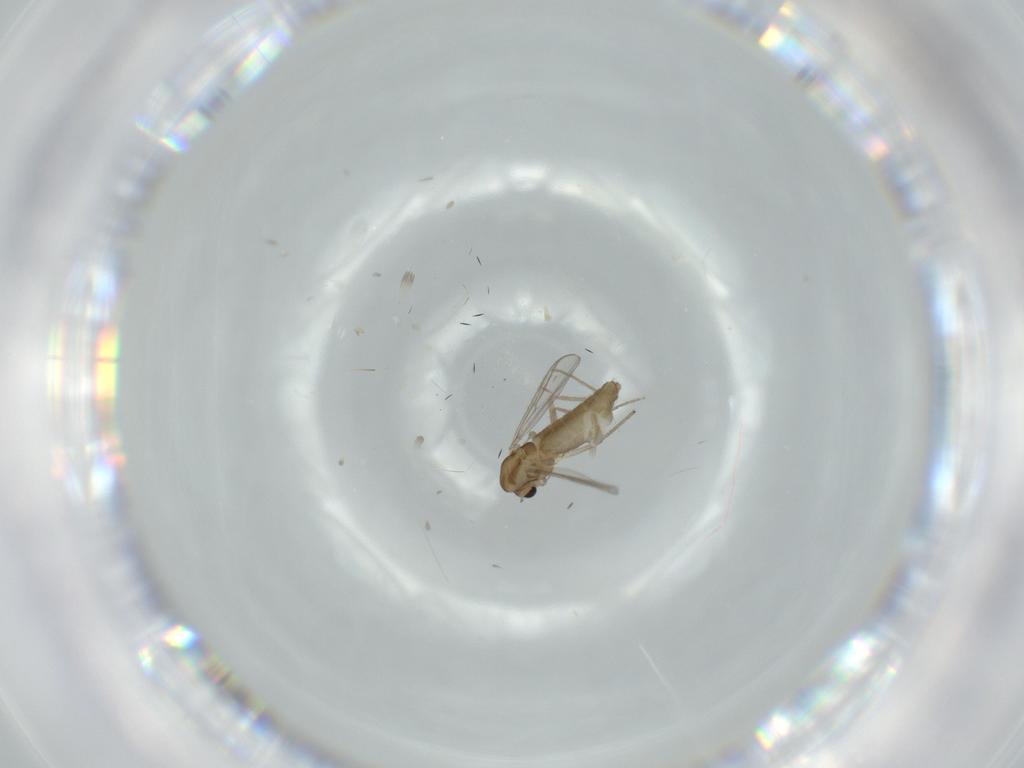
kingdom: Animalia
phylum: Arthropoda
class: Insecta
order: Diptera
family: Chironomidae
